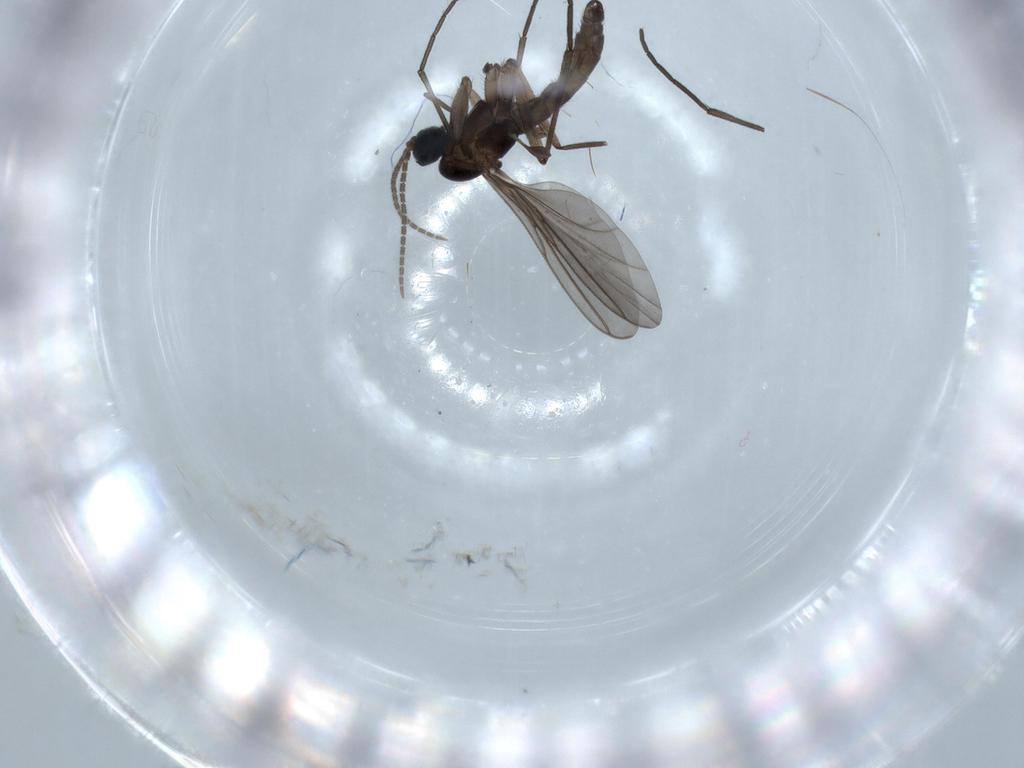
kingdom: Animalia
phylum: Arthropoda
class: Insecta
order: Diptera
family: Sciaridae
